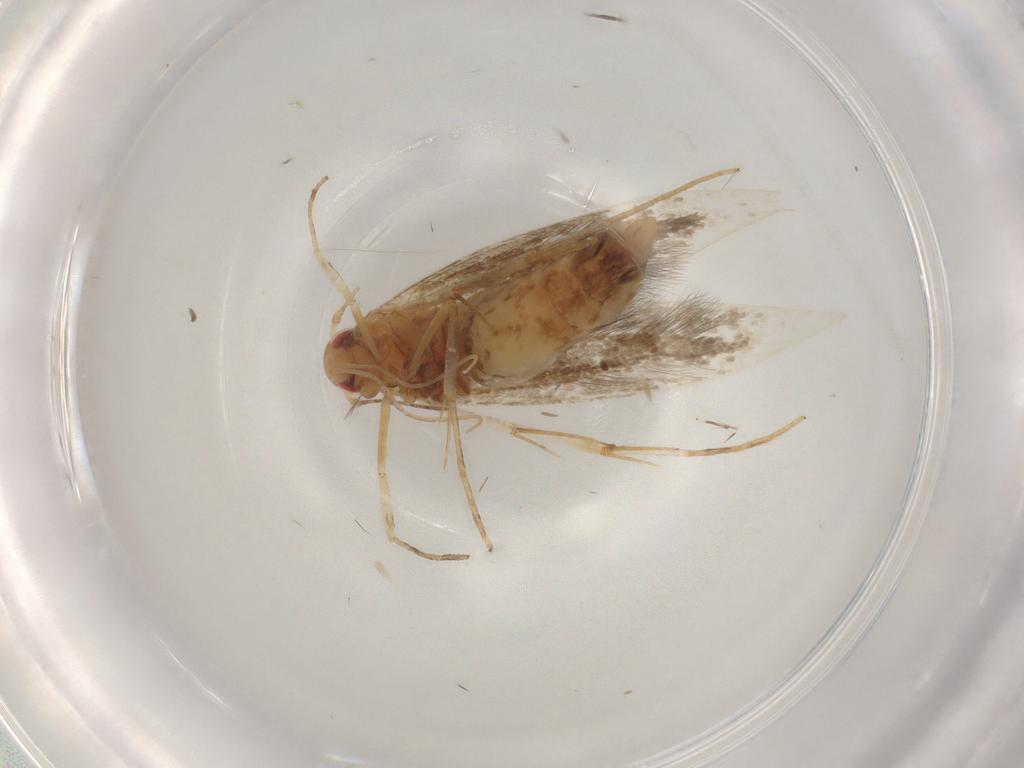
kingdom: Animalia
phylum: Arthropoda
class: Insecta
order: Lepidoptera
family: Cosmopterigidae
